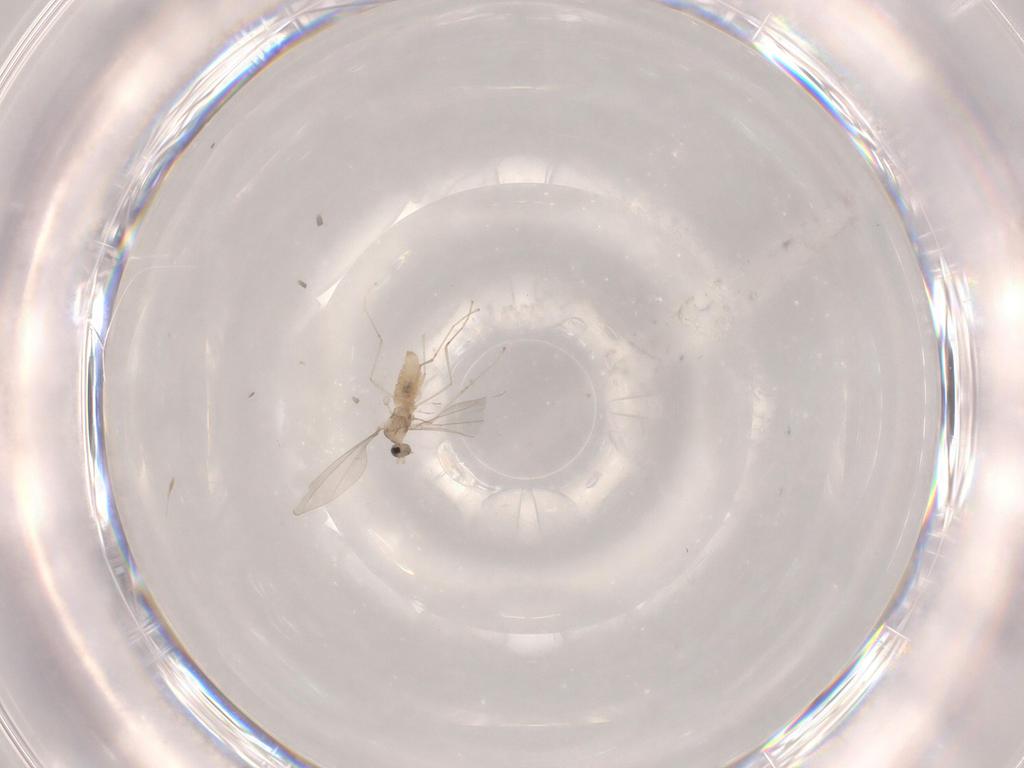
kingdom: Animalia
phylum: Arthropoda
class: Insecta
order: Diptera
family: Cecidomyiidae
